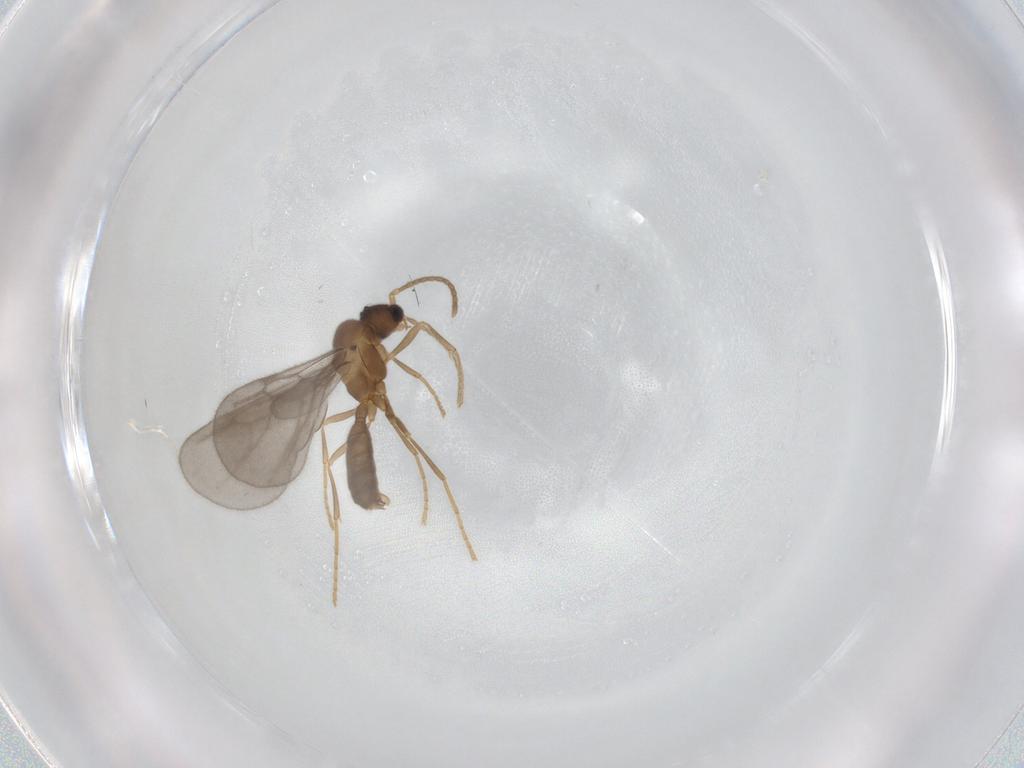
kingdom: Animalia
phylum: Arthropoda
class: Insecta
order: Hymenoptera
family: Formicidae
